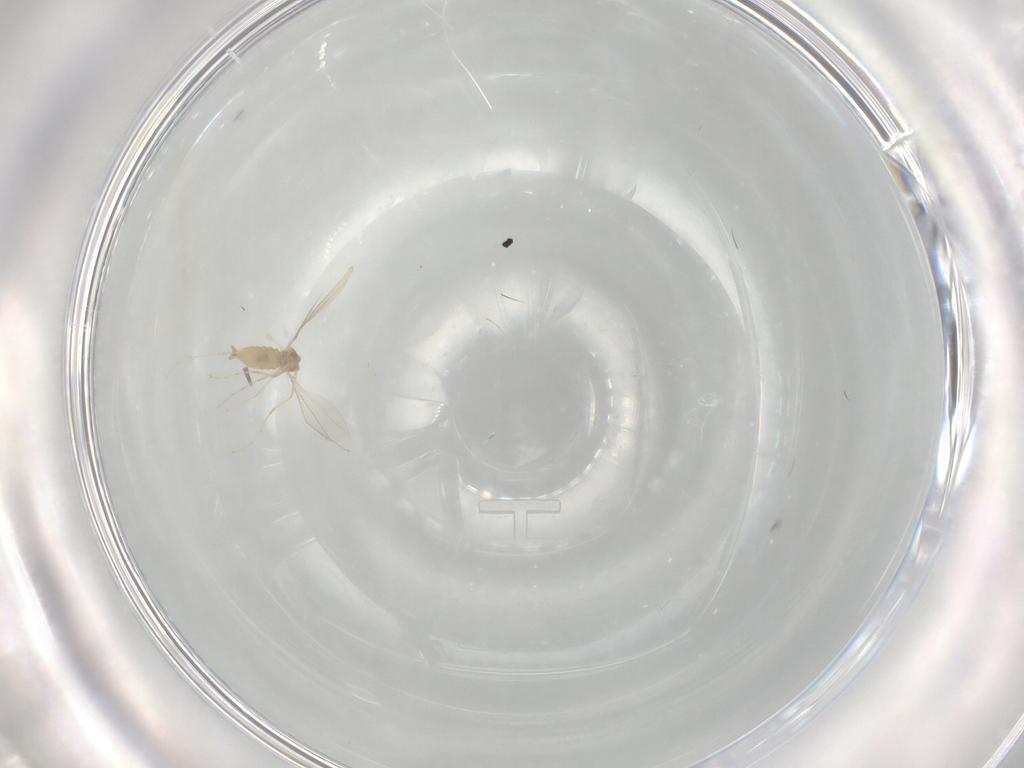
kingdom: Animalia
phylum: Arthropoda
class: Insecta
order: Diptera
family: Cecidomyiidae
